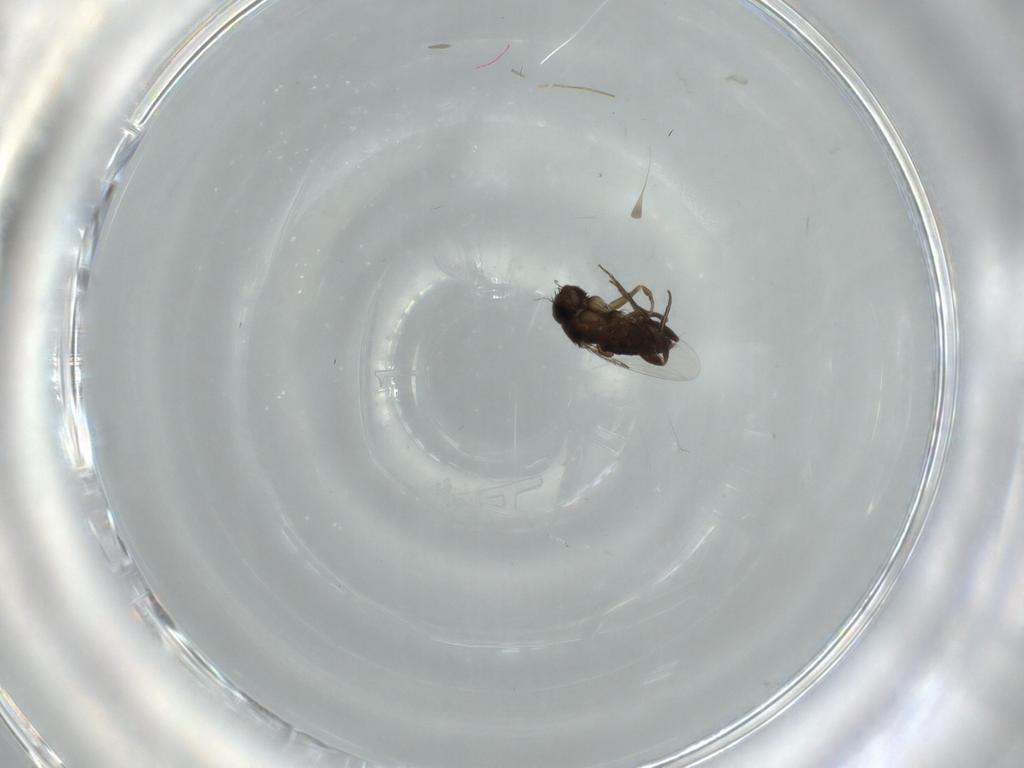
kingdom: Animalia
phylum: Arthropoda
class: Insecta
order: Diptera
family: Phoridae
